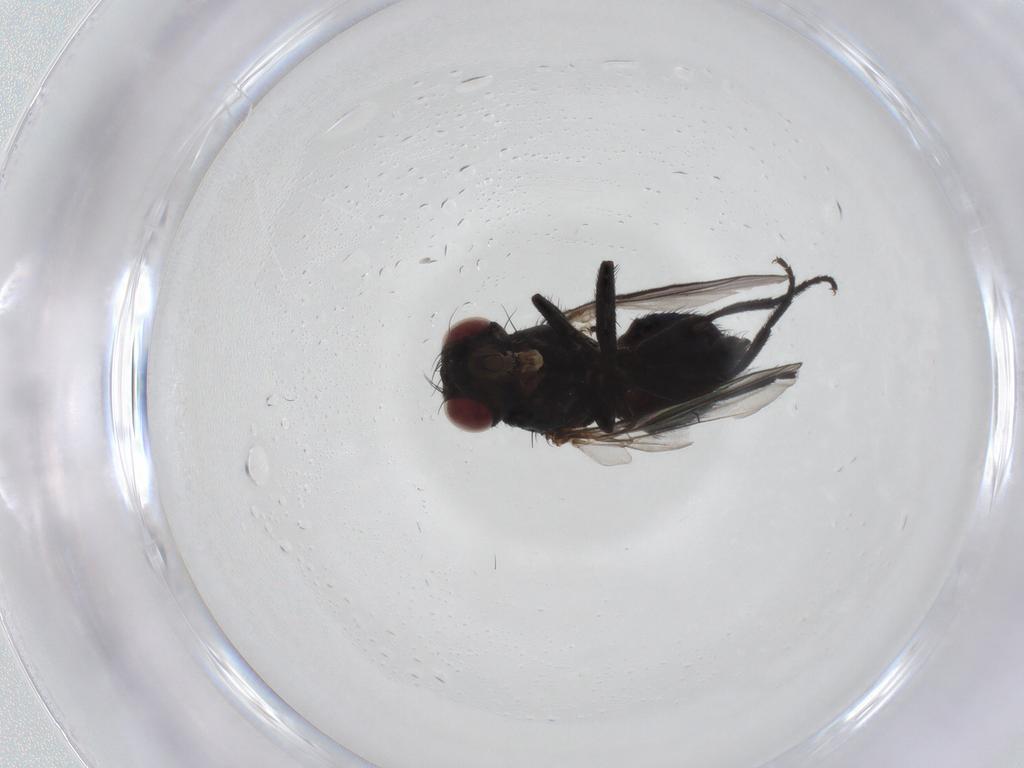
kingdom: Animalia
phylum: Arthropoda
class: Insecta
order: Diptera
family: Agromyzidae
